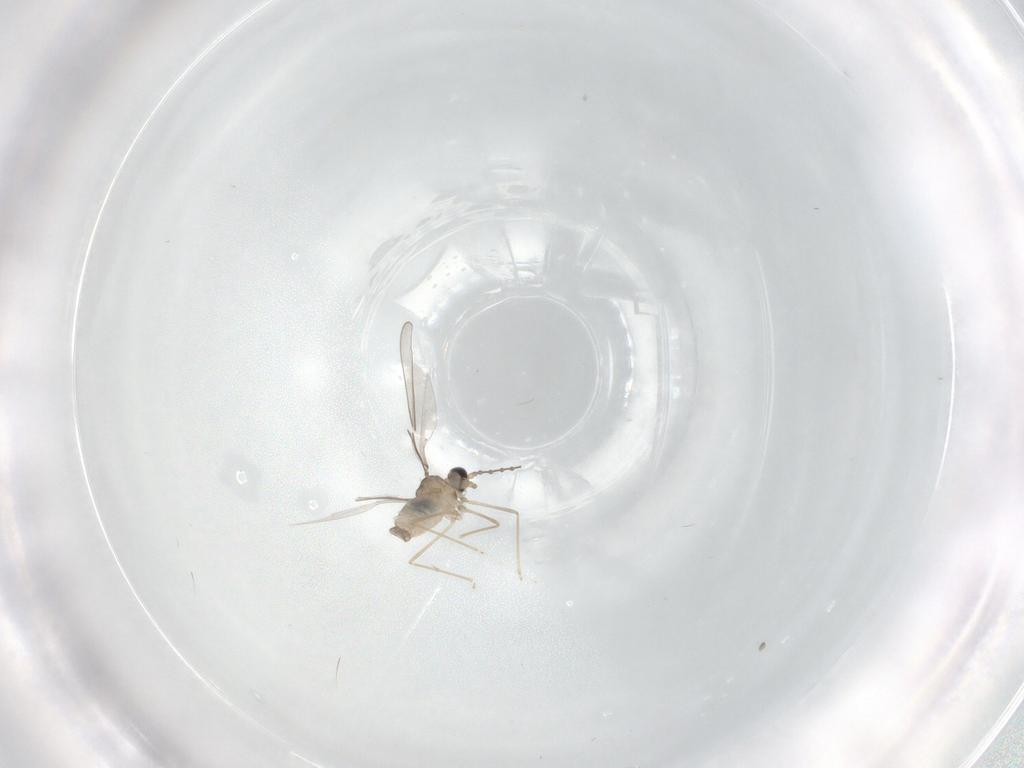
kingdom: Animalia
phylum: Arthropoda
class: Insecta
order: Diptera
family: Cecidomyiidae
